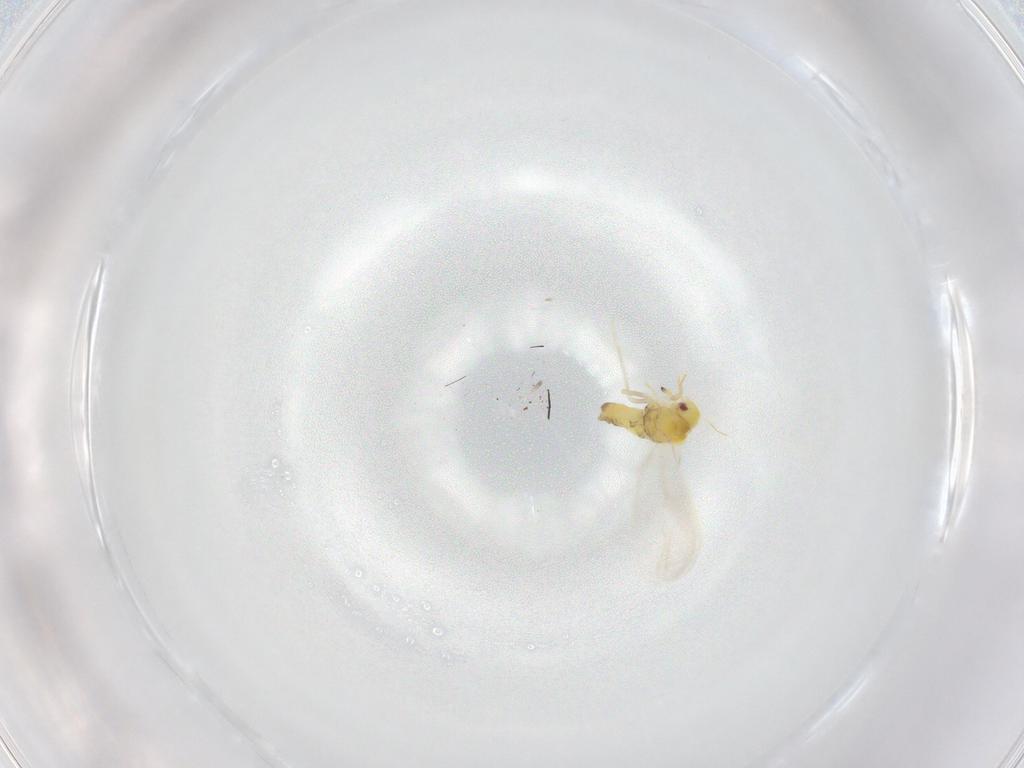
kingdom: Animalia
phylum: Arthropoda
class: Insecta
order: Hemiptera
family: Aleyrodidae
